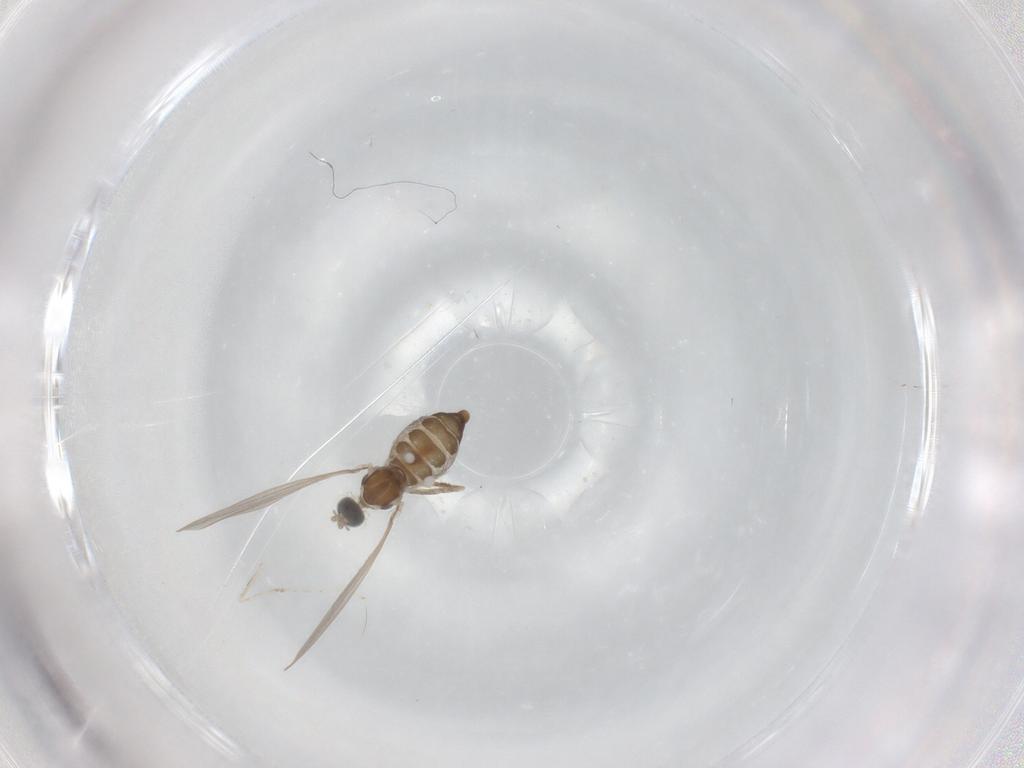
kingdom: Animalia
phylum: Arthropoda
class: Insecta
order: Diptera
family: Cecidomyiidae
